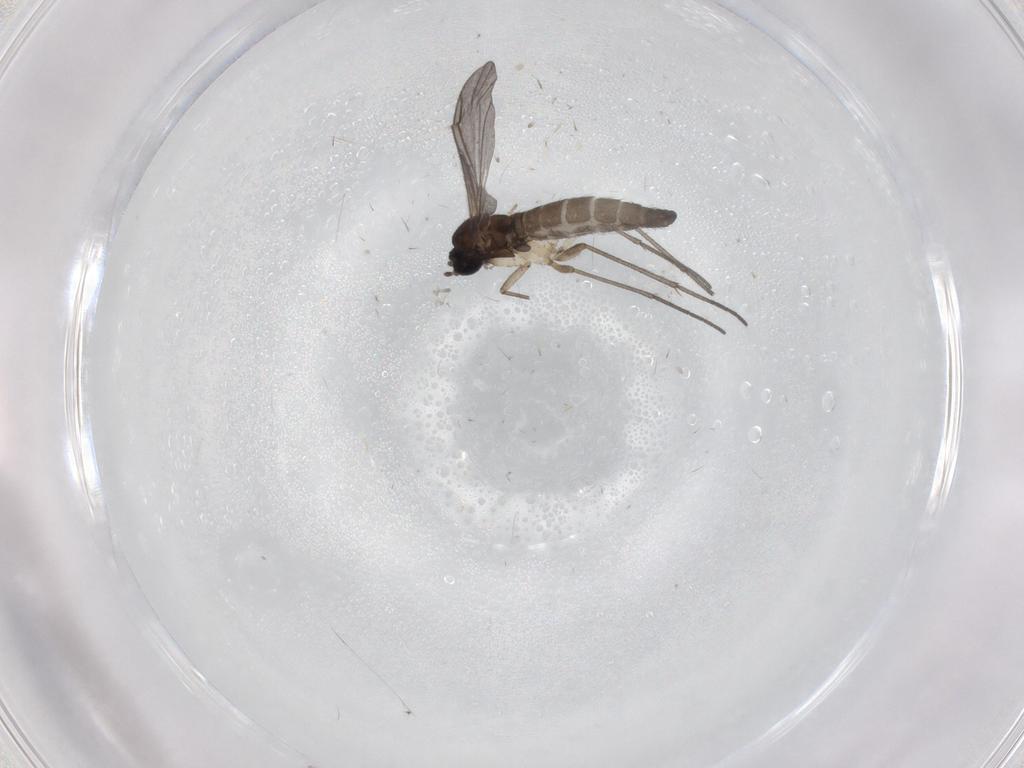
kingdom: Animalia
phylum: Arthropoda
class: Insecta
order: Diptera
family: Sciaridae
